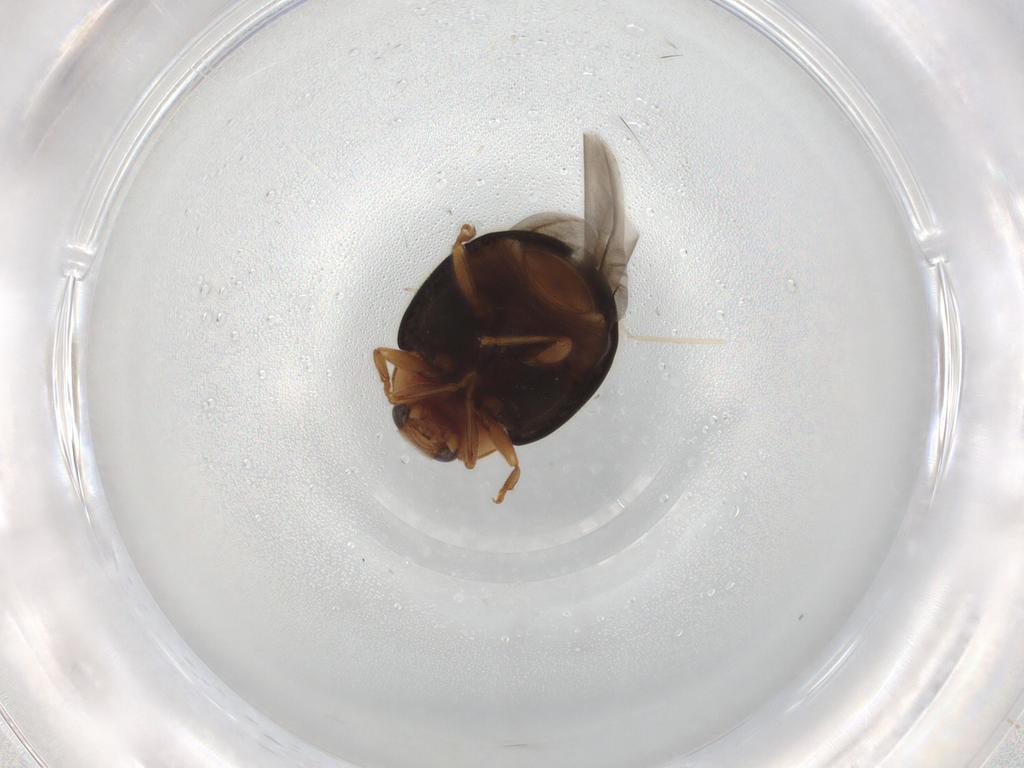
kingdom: Animalia
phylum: Arthropoda
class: Insecta
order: Coleoptera
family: Coccinellidae
